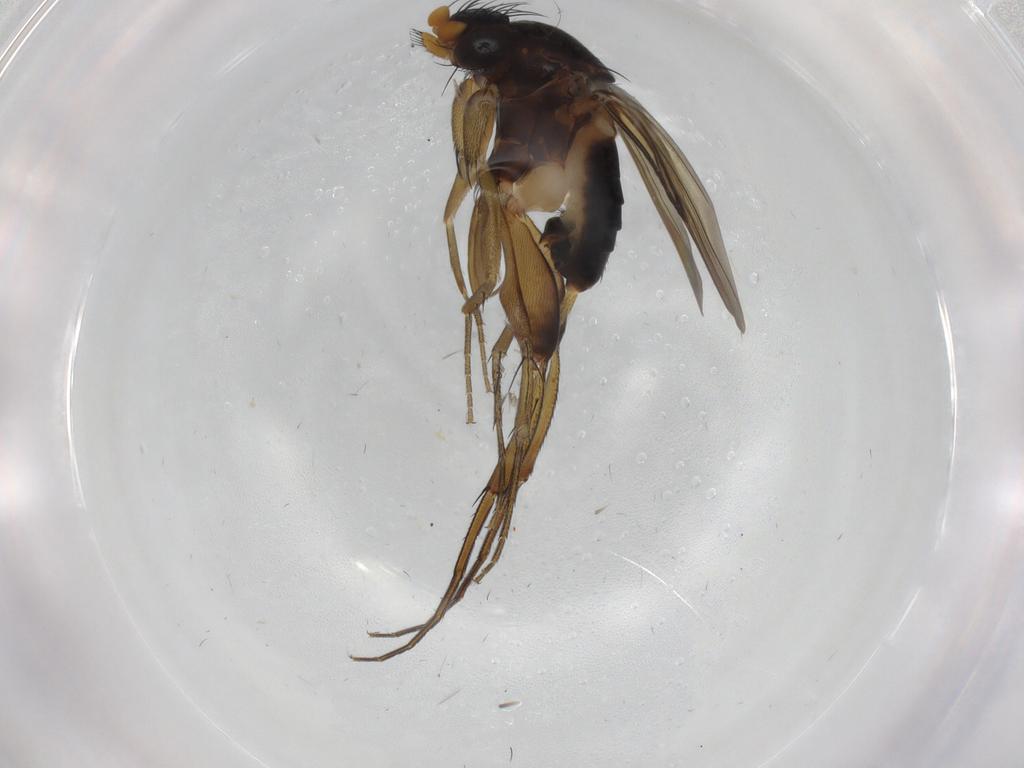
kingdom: Animalia
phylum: Arthropoda
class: Insecta
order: Diptera
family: Phoridae
